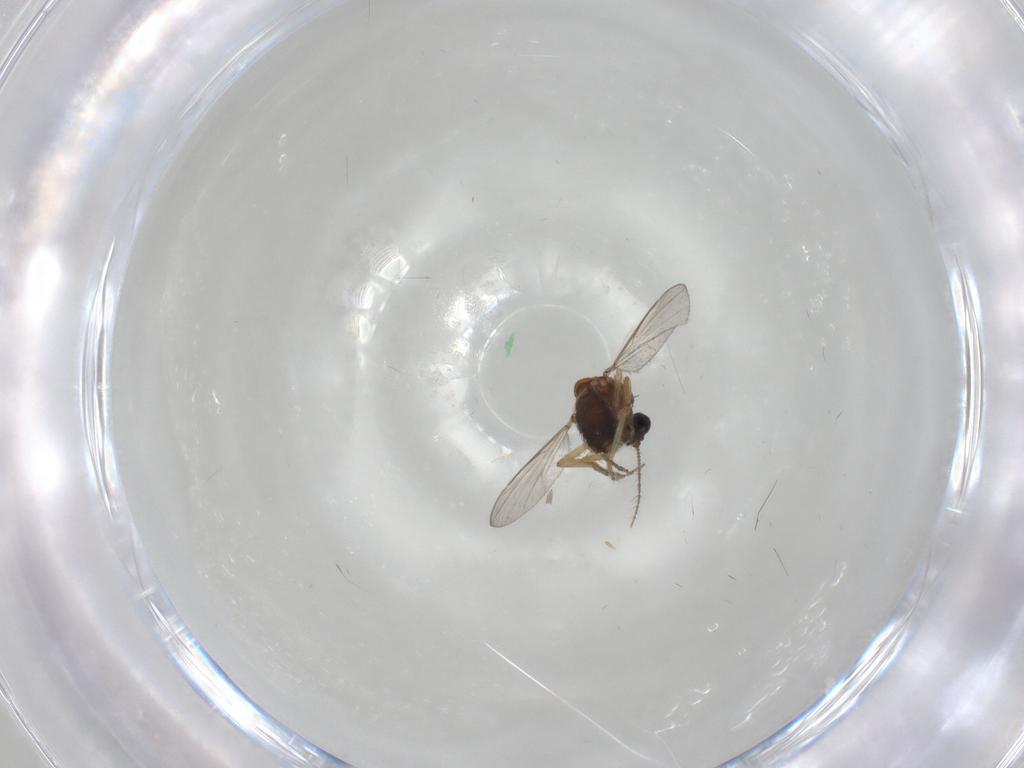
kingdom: Animalia
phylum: Arthropoda
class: Insecta
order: Diptera
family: Ceratopogonidae
